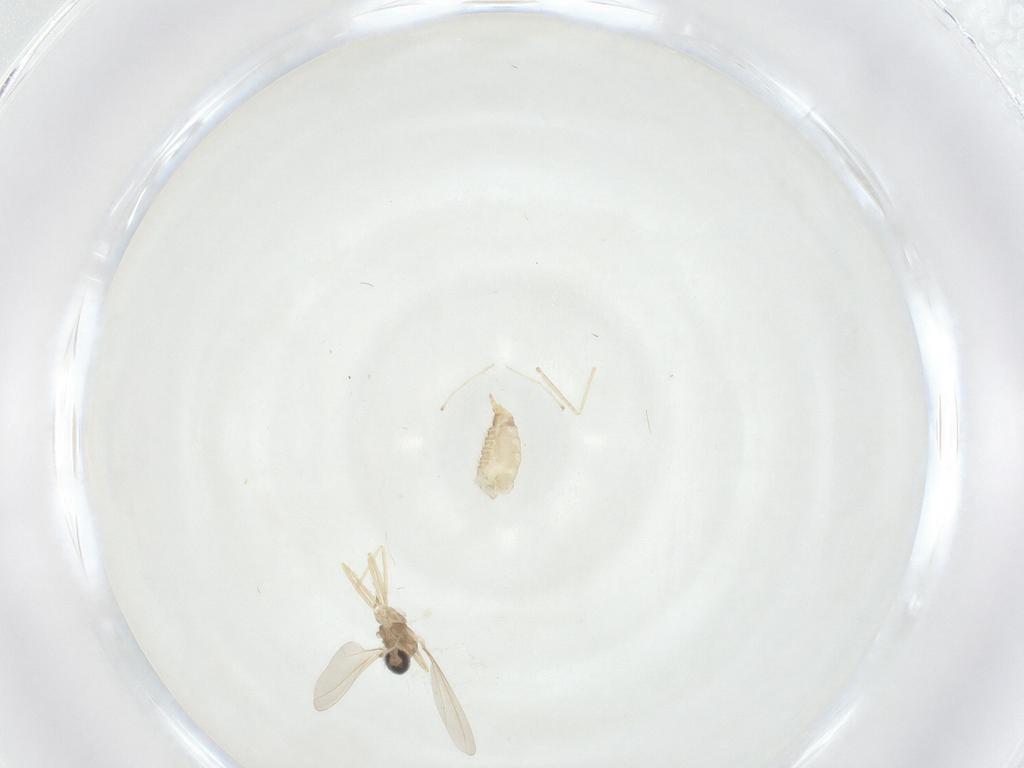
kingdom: Animalia
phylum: Arthropoda
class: Insecta
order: Diptera
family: Cecidomyiidae
